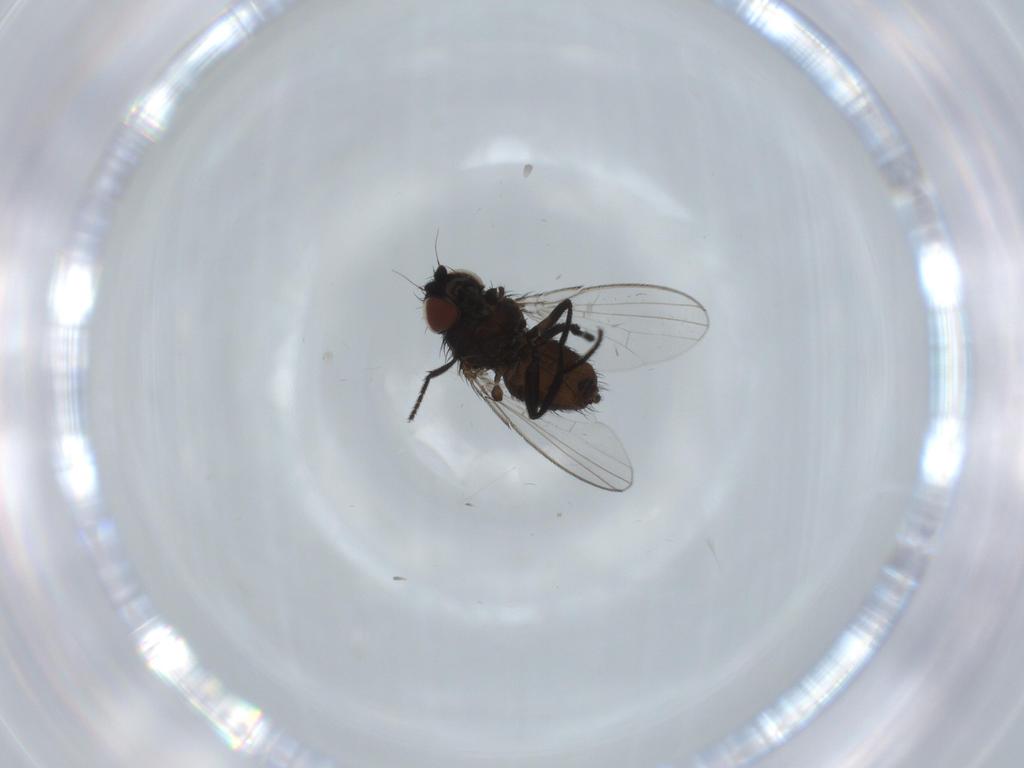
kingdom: Animalia
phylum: Arthropoda
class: Insecta
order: Diptera
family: Milichiidae
